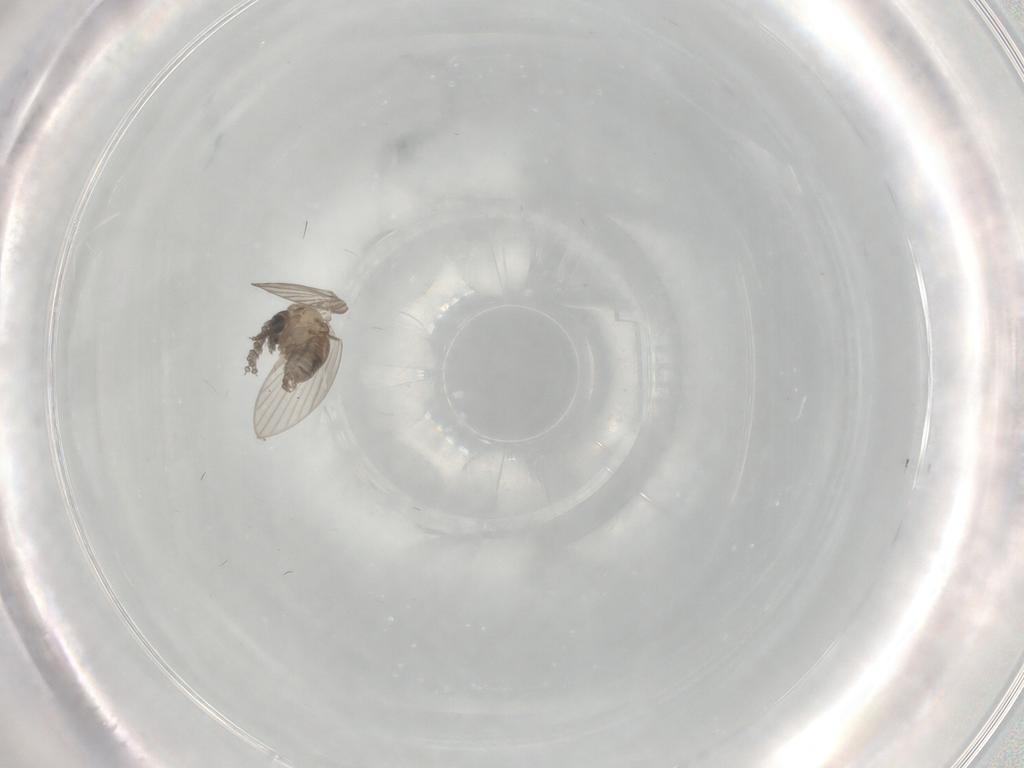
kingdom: Animalia
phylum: Arthropoda
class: Insecta
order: Diptera
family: Psychodidae
